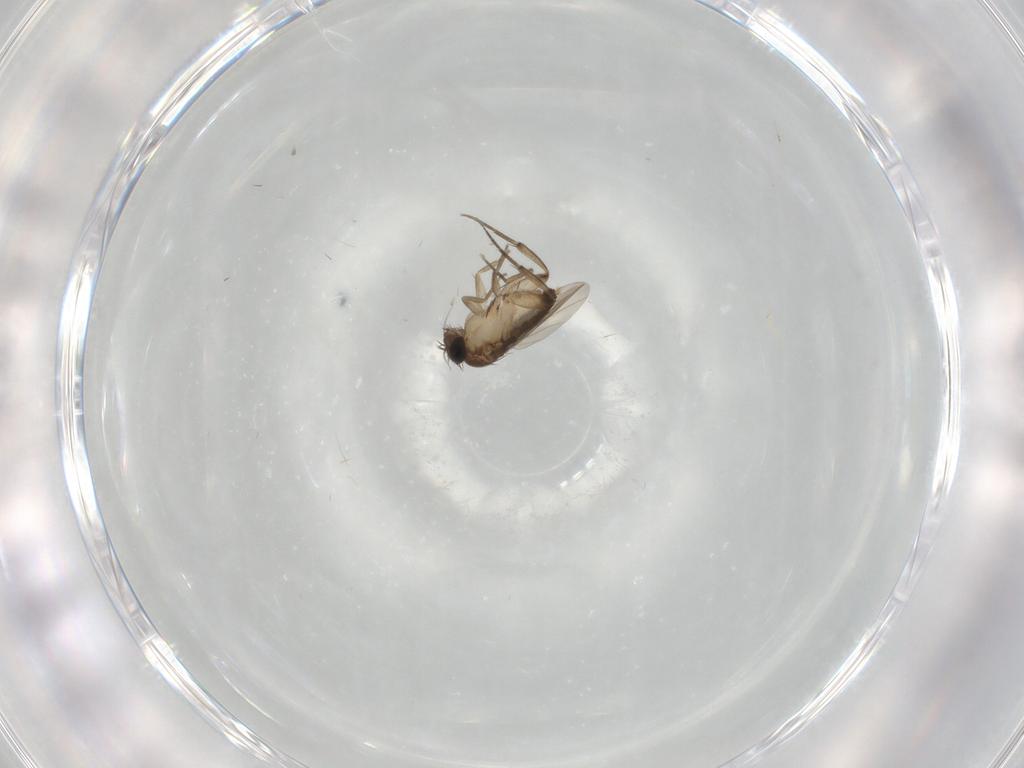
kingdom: Animalia
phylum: Arthropoda
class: Insecta
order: Diptera
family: Phoridae
